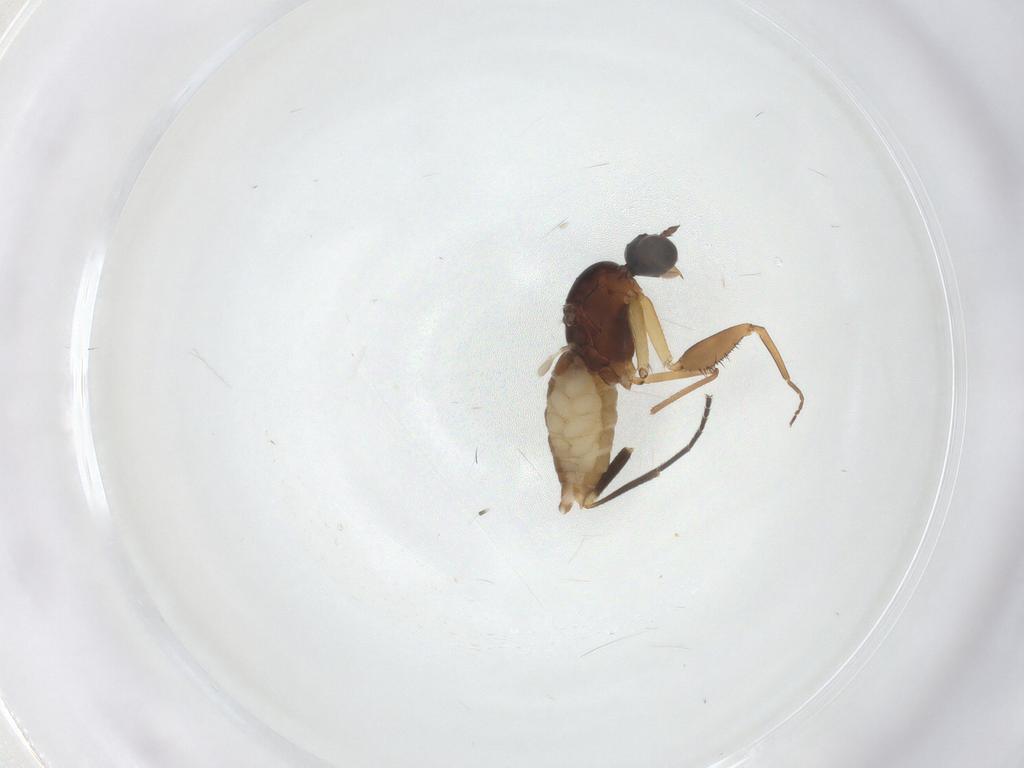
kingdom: Animalia
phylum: Arthropoda
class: Insecta
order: Diptera
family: Empididae
